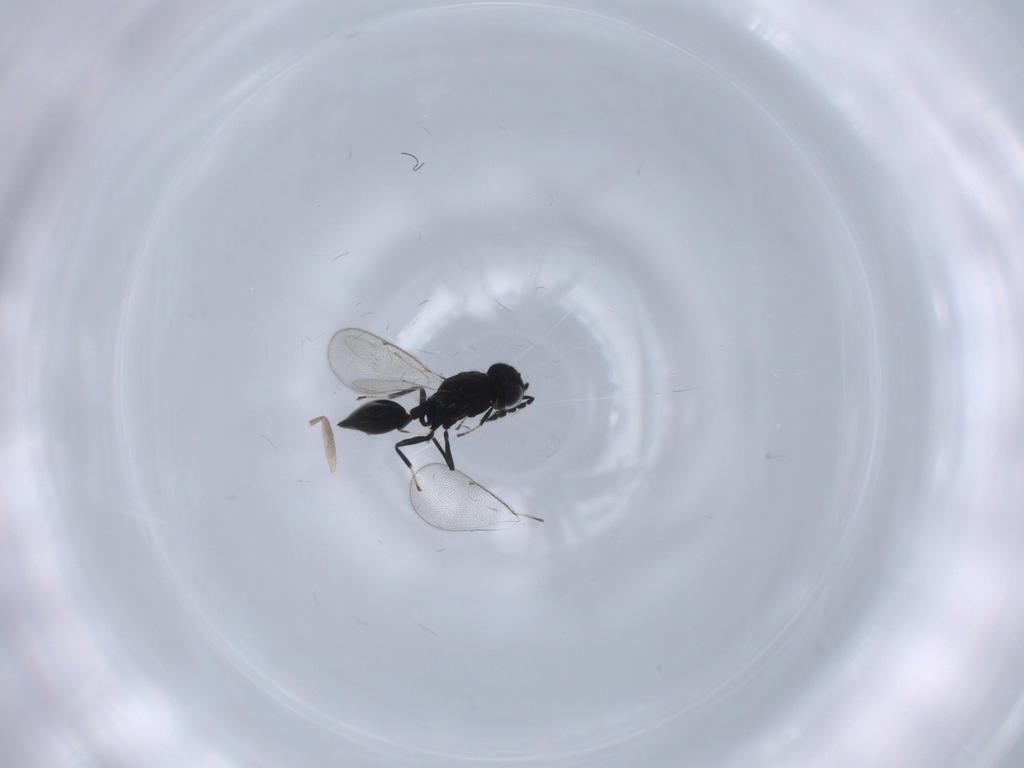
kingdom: Animalia
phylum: Arthropoda
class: Insecta
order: Hymenoptera
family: Eulophidae
